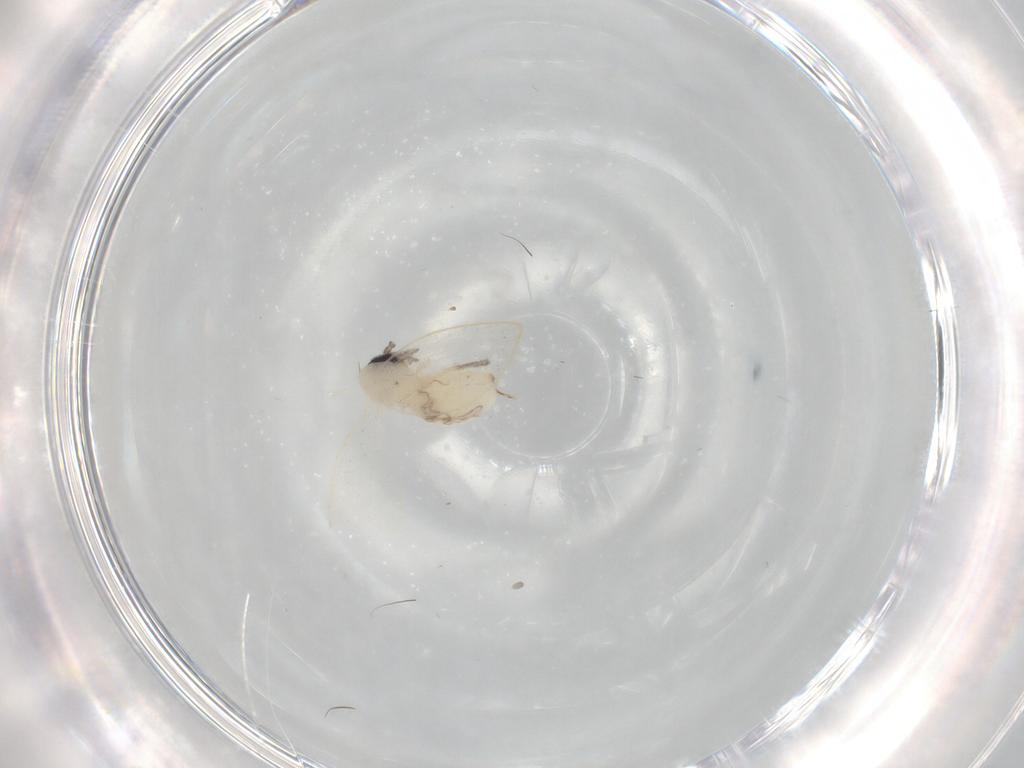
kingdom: Animalia
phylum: Arthropoda
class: Insecta
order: Diptera
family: Psychodidae
